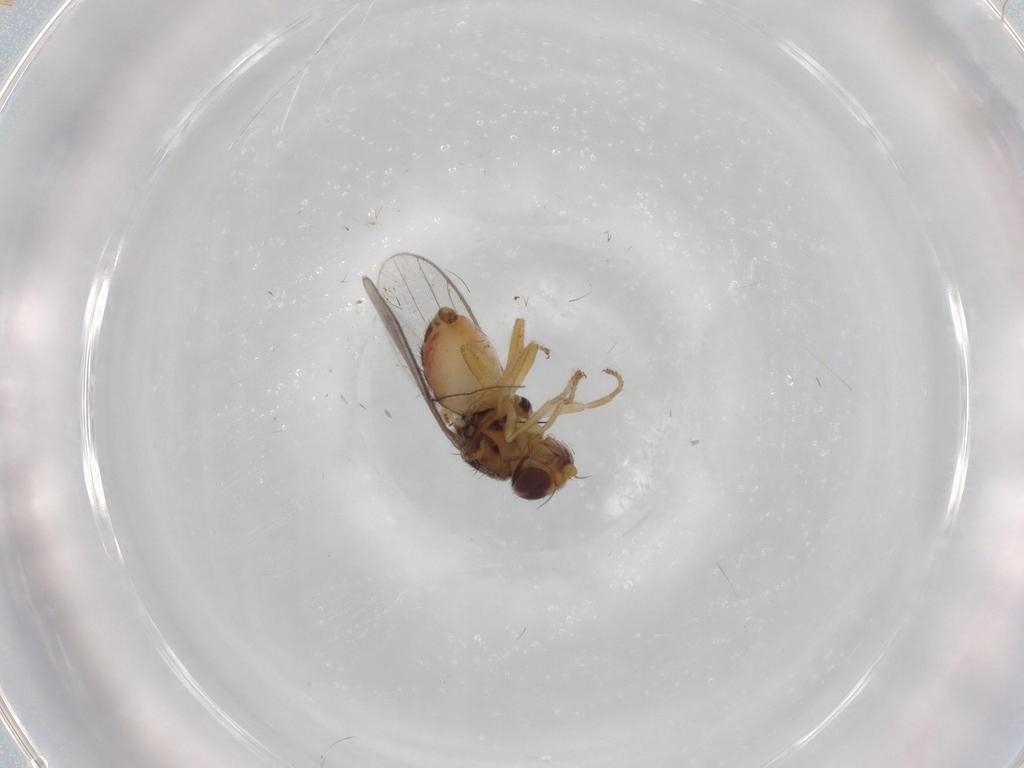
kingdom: Animalia
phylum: Arthropoda
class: Insecta
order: Diptera
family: Chloropidae
